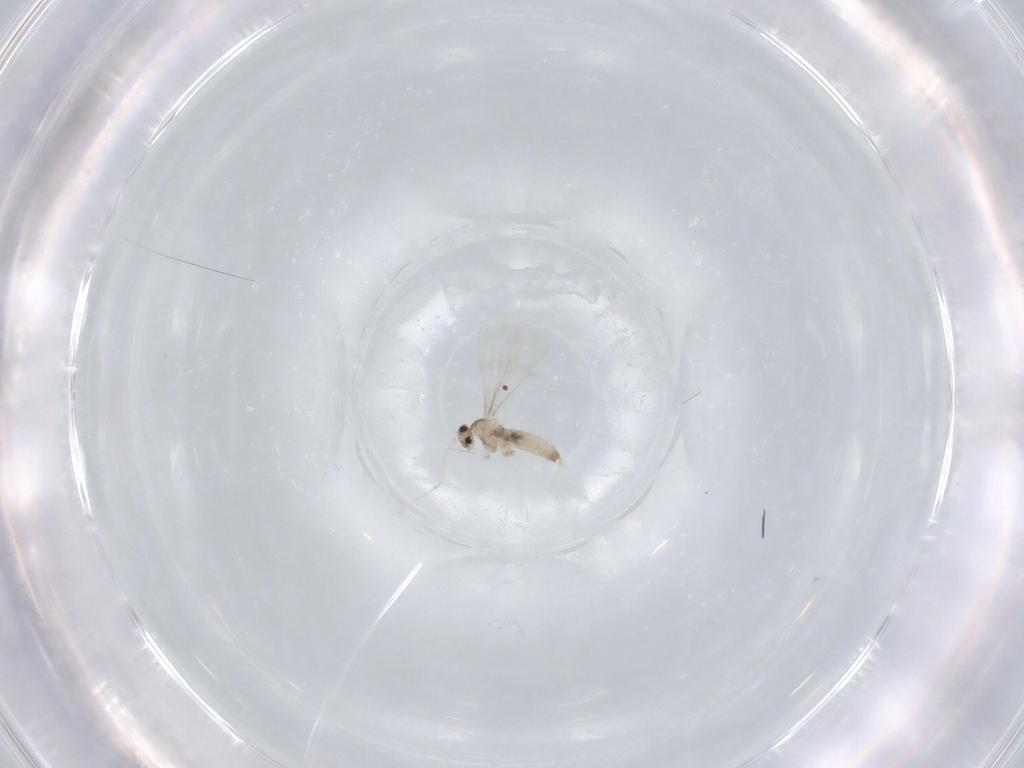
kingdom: Animalia
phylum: Arthropoda
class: Insecta
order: Diptera
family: Cecidomyiidae
